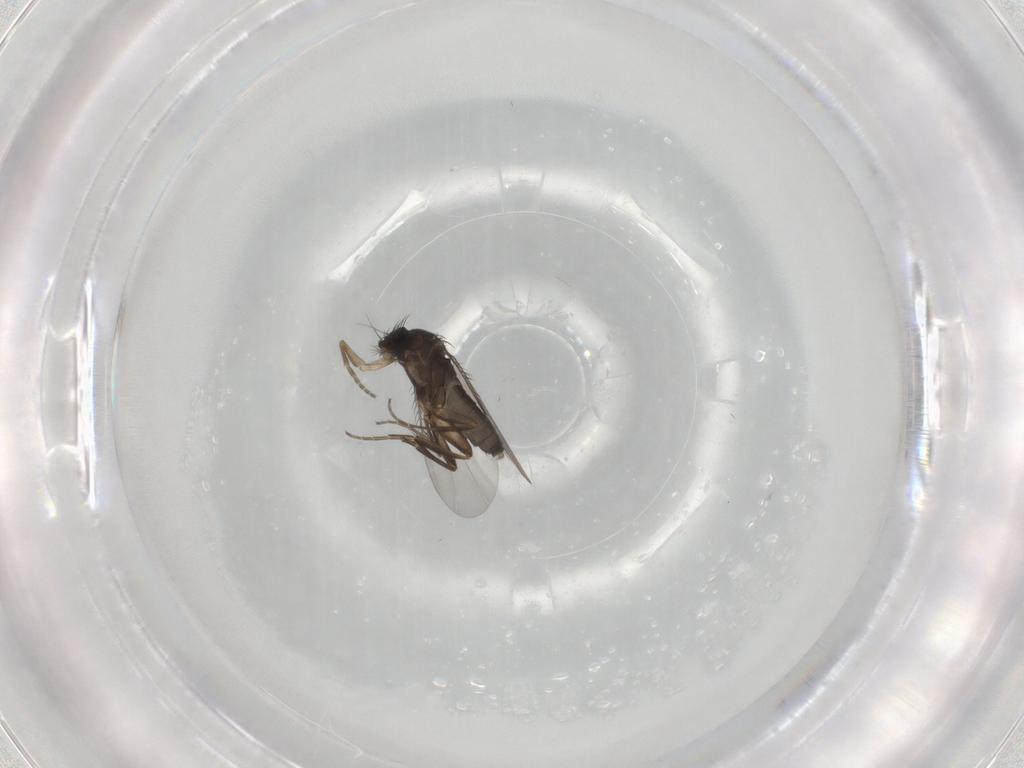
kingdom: Animalia
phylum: Arthropoda
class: Insecta
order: Diptera
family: Phoridae
